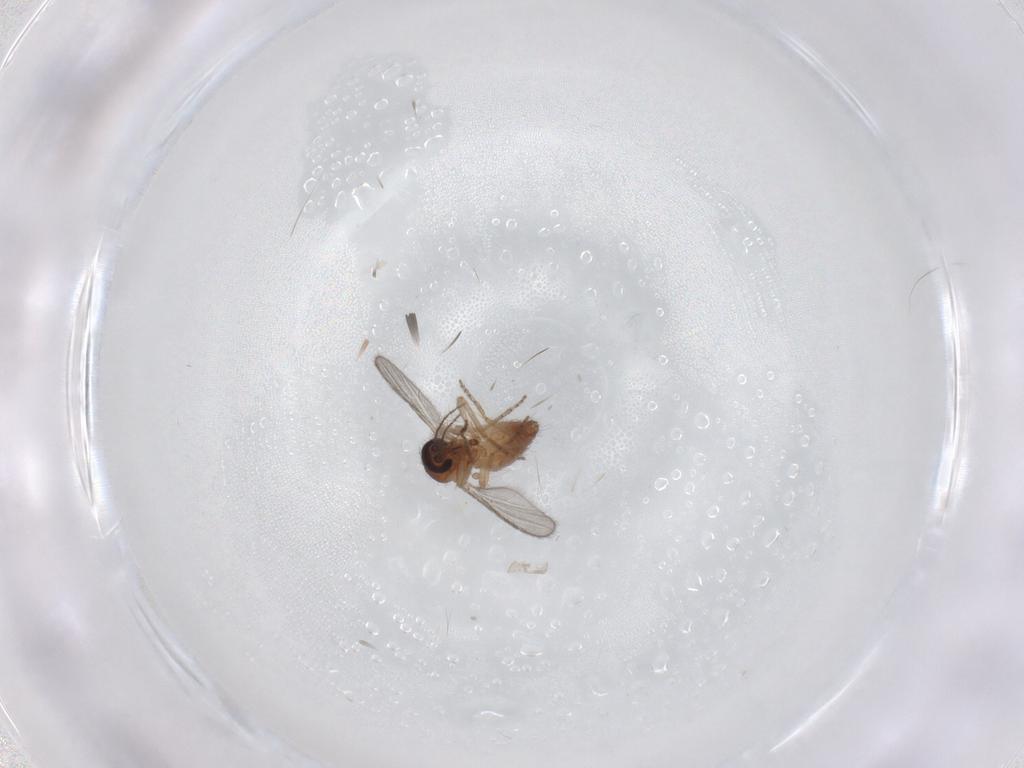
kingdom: Animalia
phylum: Arthropoda
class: Insecta
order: Diptera
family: Ceratopogonidae
